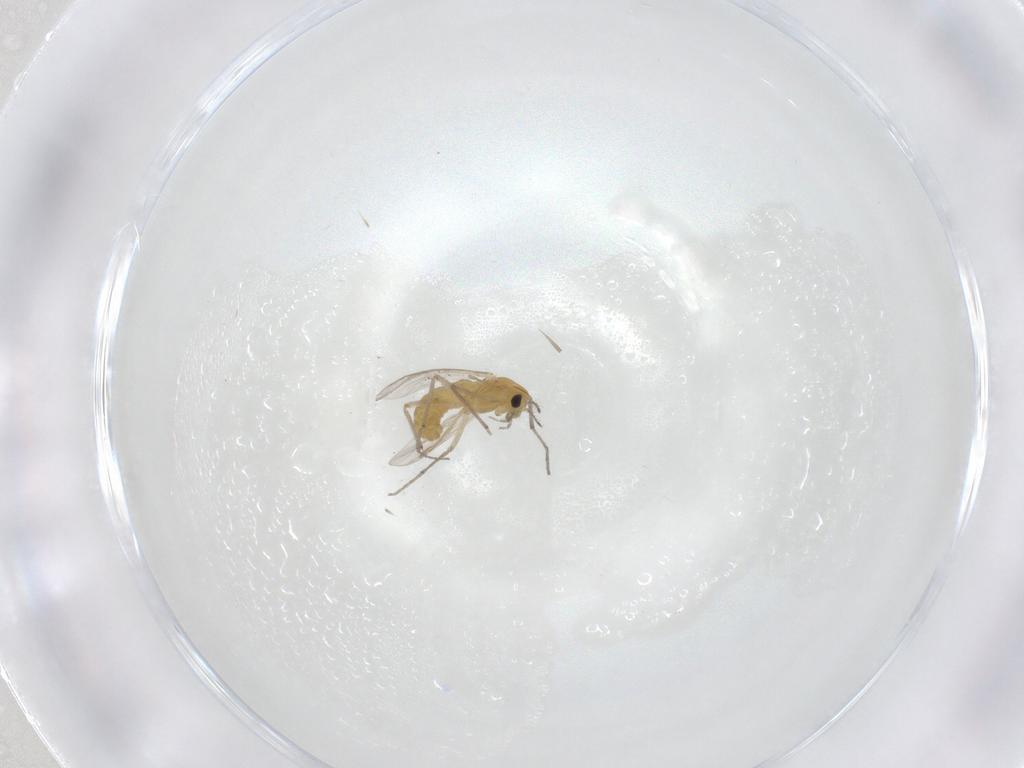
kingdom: Animalia
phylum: Arthropoda
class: Insecta
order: Diptera
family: Chironomidae
